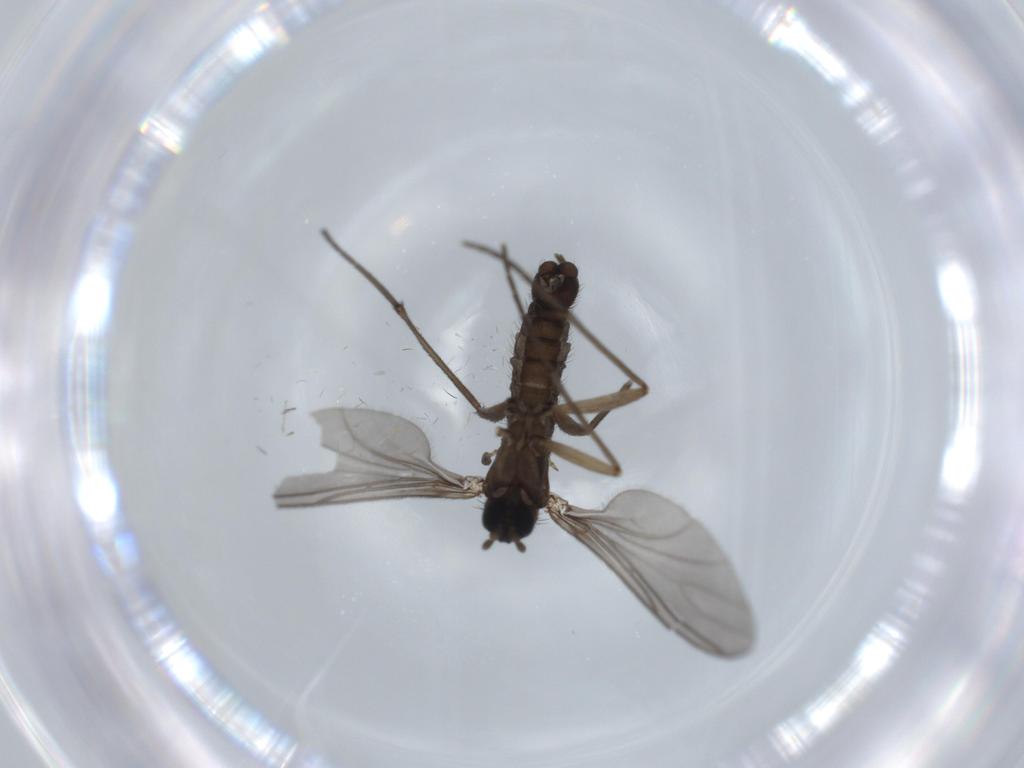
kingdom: Animalia
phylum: Arthropoda
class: Insecta
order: Diptera
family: Sciaridae
